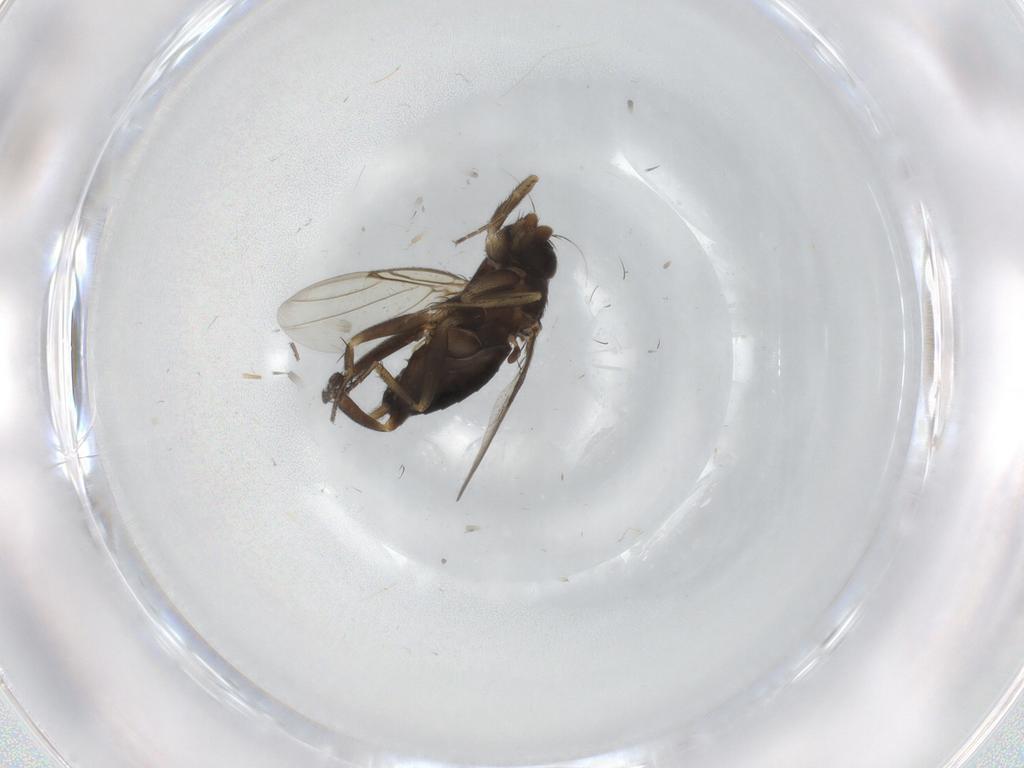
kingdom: Animalia
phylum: Arthropoda
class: Insecta
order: Diptera
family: Phoridae
